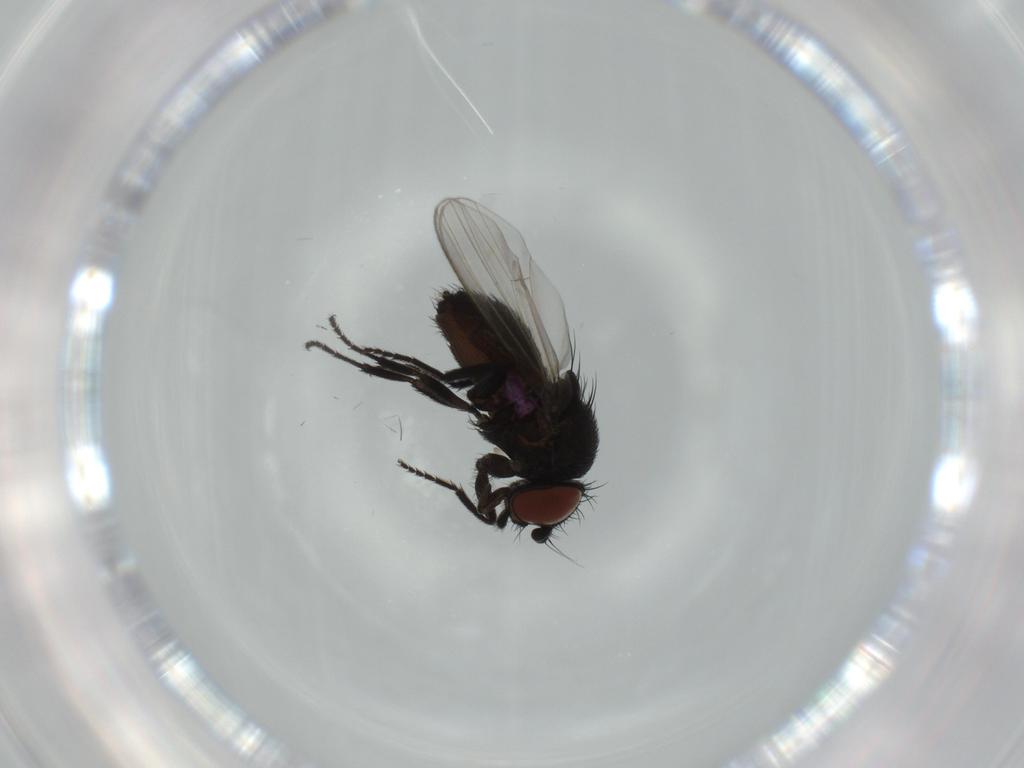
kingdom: Animalia
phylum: Arthropoda
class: Insecta
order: Diptera
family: Milichiidae
